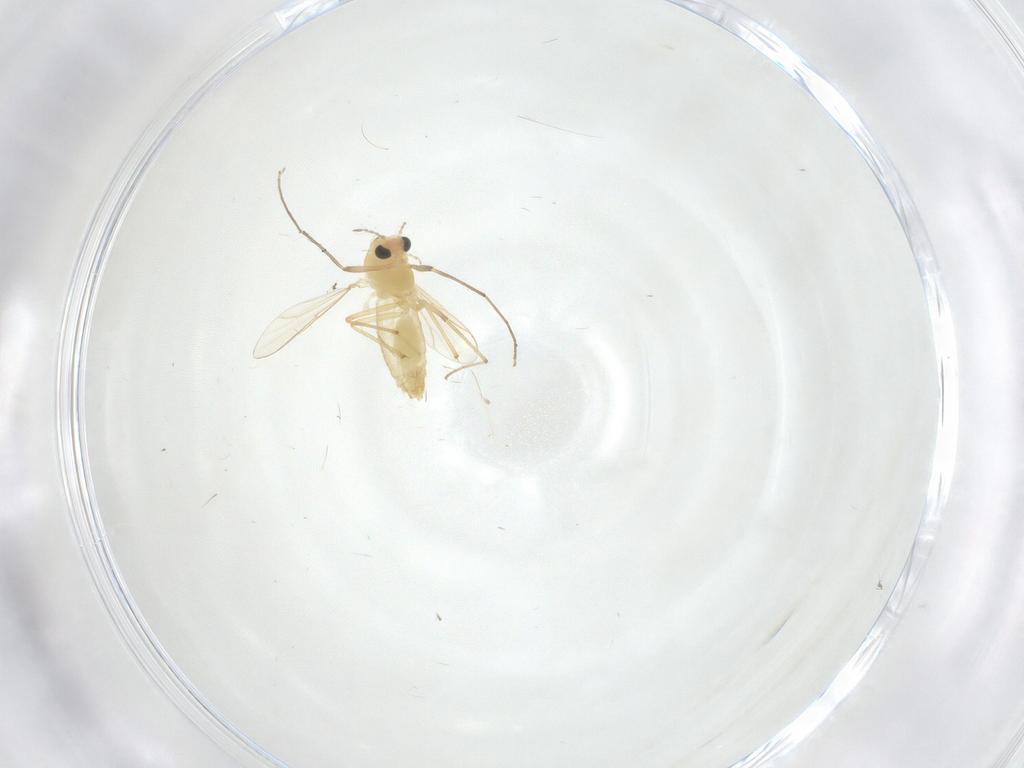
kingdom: Animalia
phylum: Arthropoda
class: Insecta
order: Diptera
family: Chironomidae
